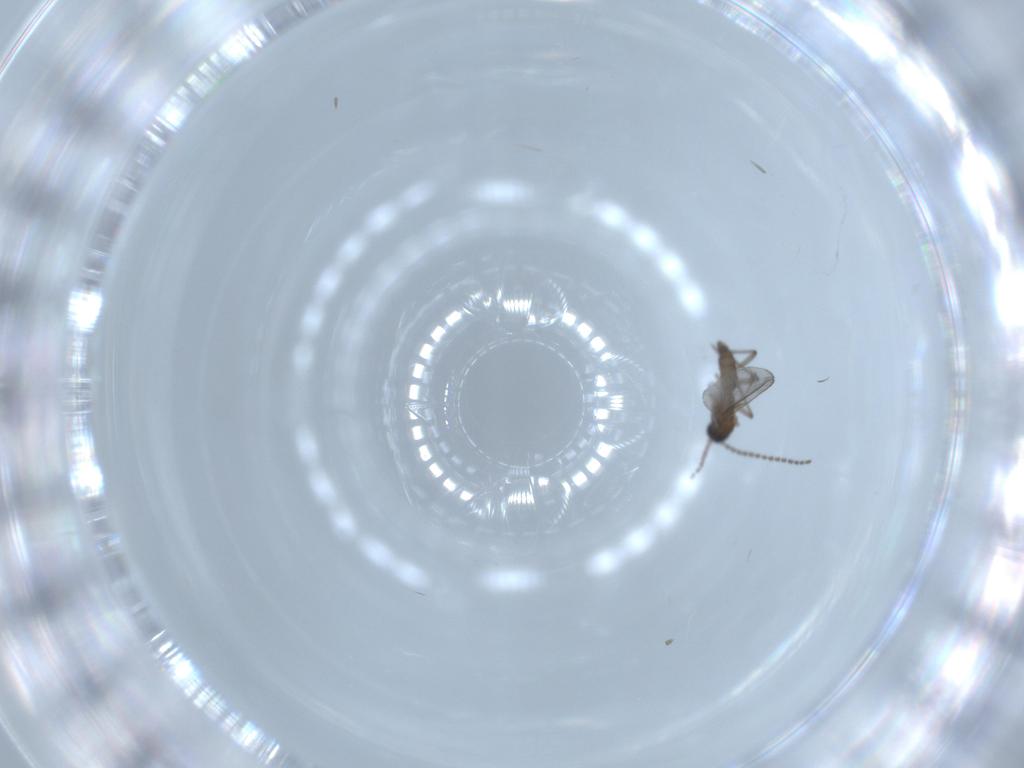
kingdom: Animalia
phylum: Arthropoda
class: Insecta
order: Diptera
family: Sciaridae
